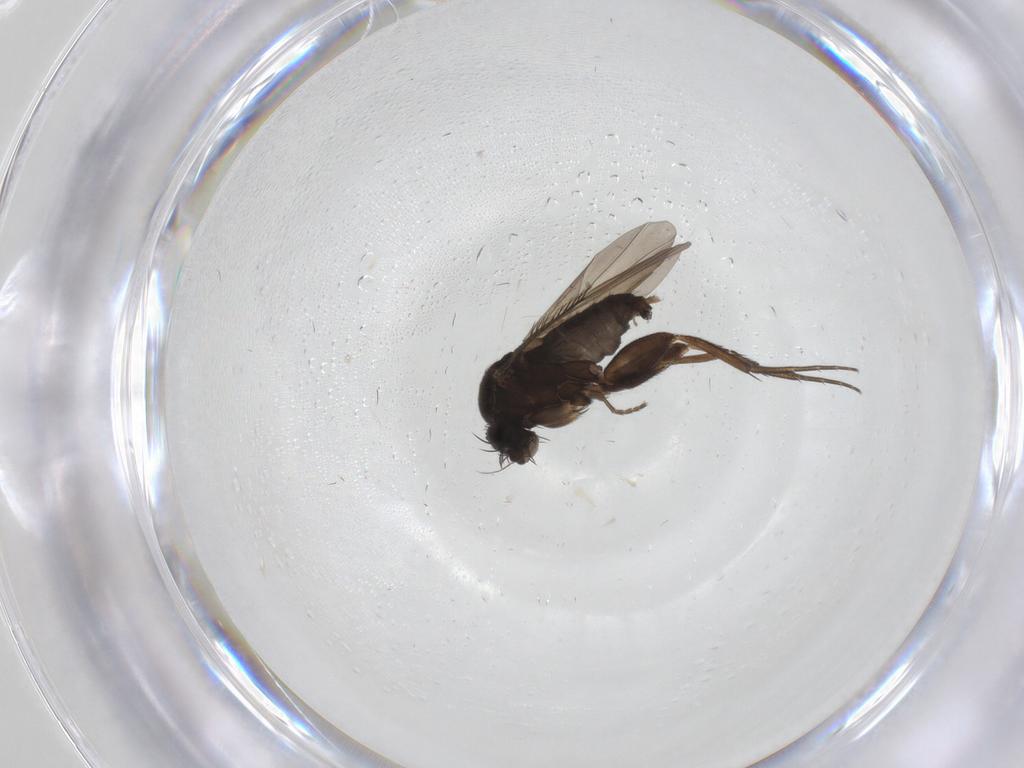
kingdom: Animalia
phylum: Arthropoda
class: Insecta
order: Diptera
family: Phoridae
